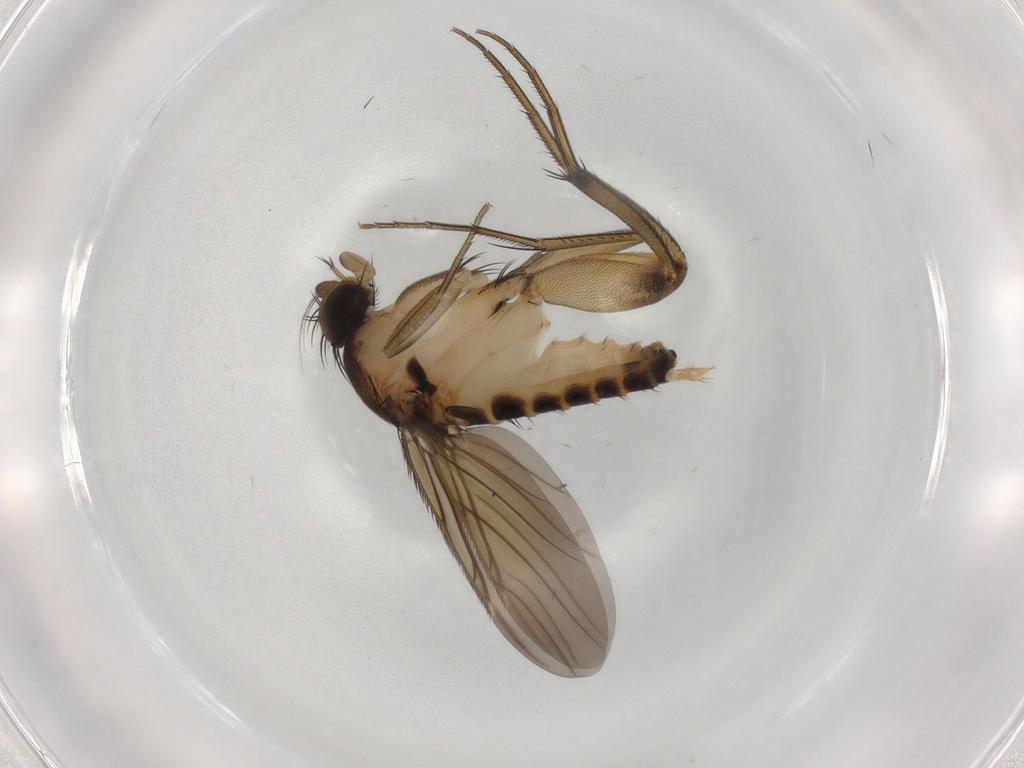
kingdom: Animalia
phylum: Arthropoda
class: Insecta
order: Diptera
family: Phoridae
